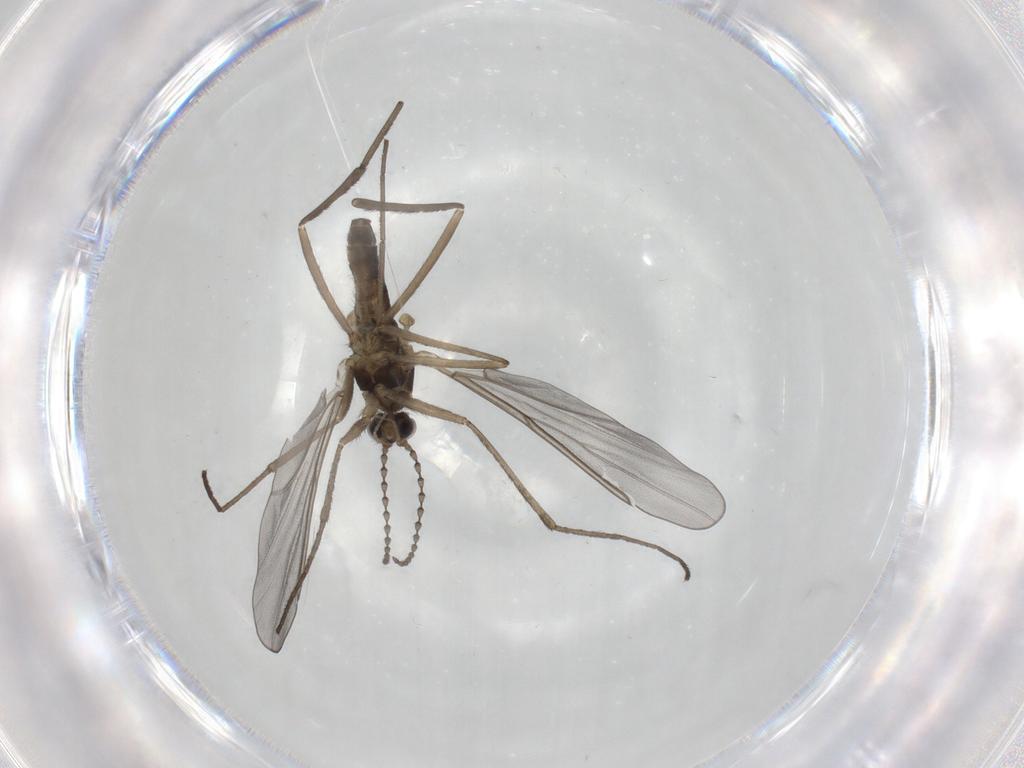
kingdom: Animalia
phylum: Arthropoda
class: Insecta
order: Diptera
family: Cecidomyiidae
